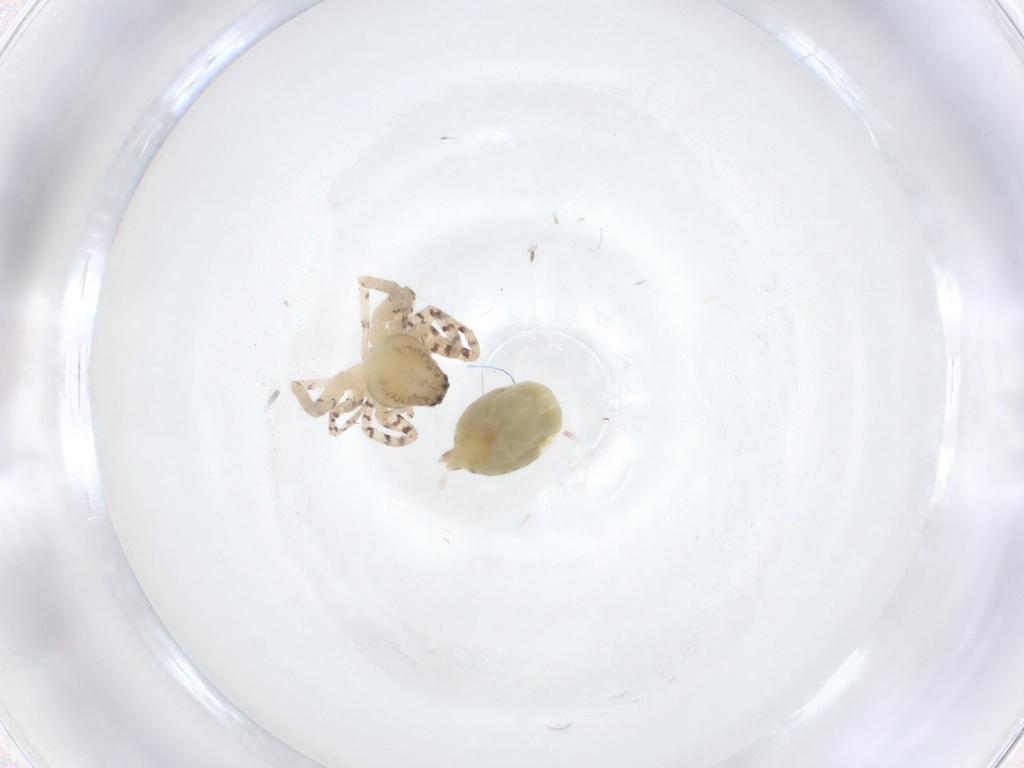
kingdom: Animalia
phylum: Arthropoda
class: Arachnida
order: Araneae
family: Anyphaenidae
